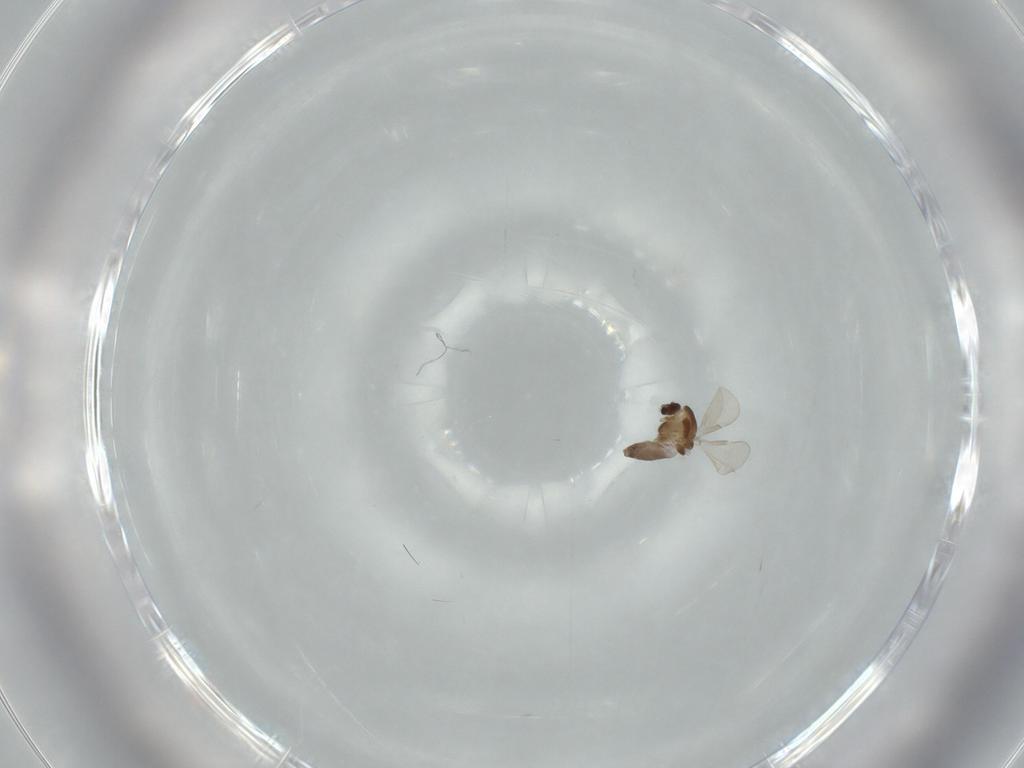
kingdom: Animalia
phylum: Arthropoda
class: Insecta
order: Diptera
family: Chironomidae
